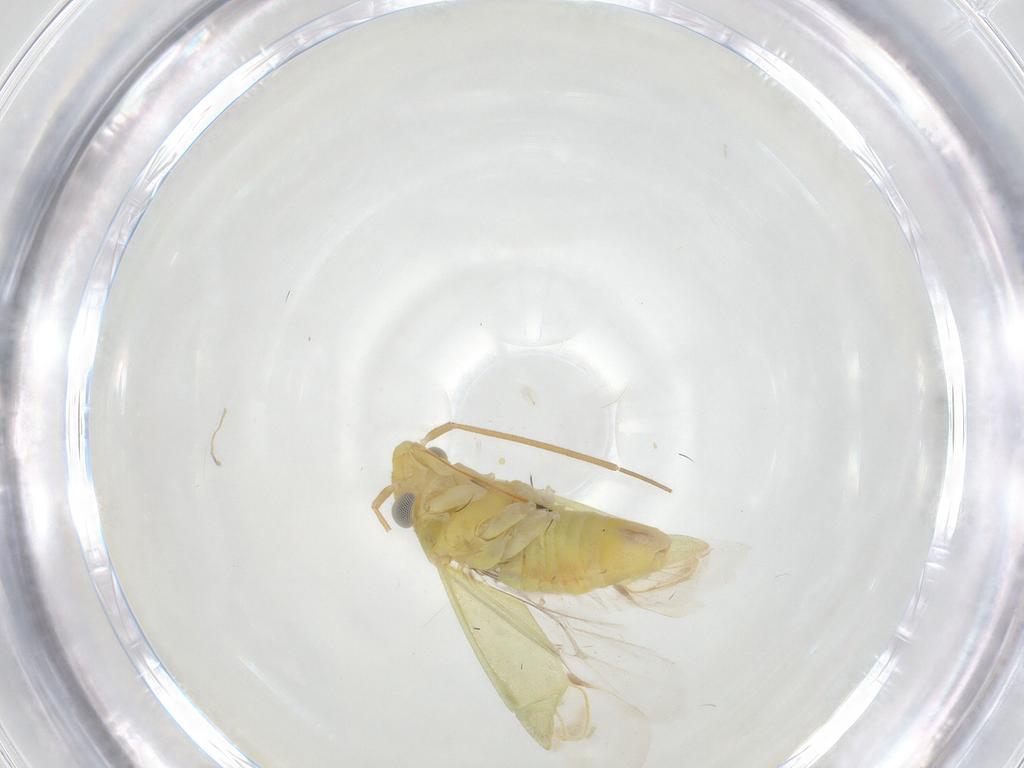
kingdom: Animalia
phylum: Arthropoda
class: Insecta
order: Hemiptera
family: Miridae
